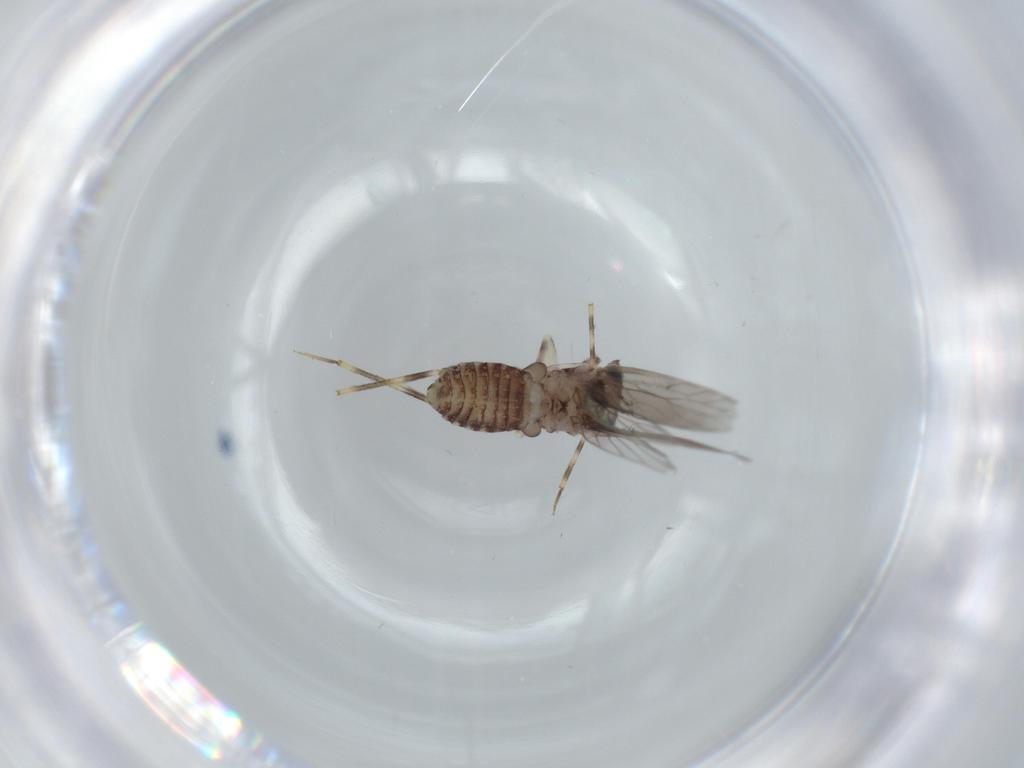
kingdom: Animalia
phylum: Arthropoda
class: Insecta
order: Psocodea
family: Lepidopsocidae
